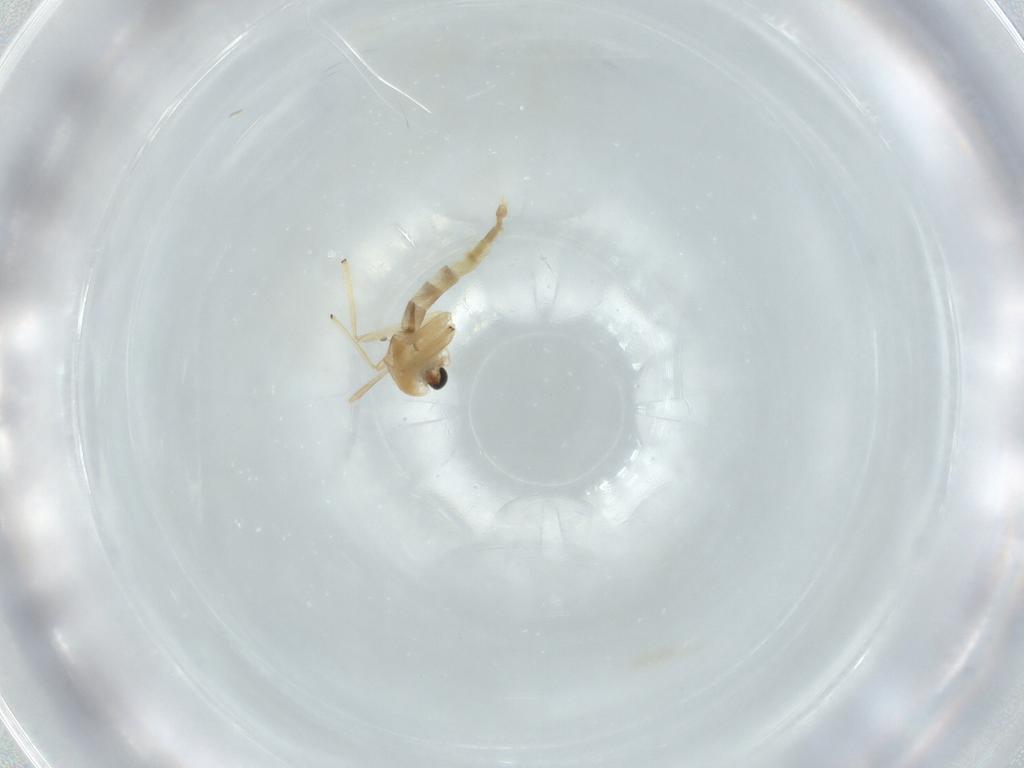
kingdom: Animalia
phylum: Arthropoda
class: Insecta
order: Diptera
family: Chironomidae
